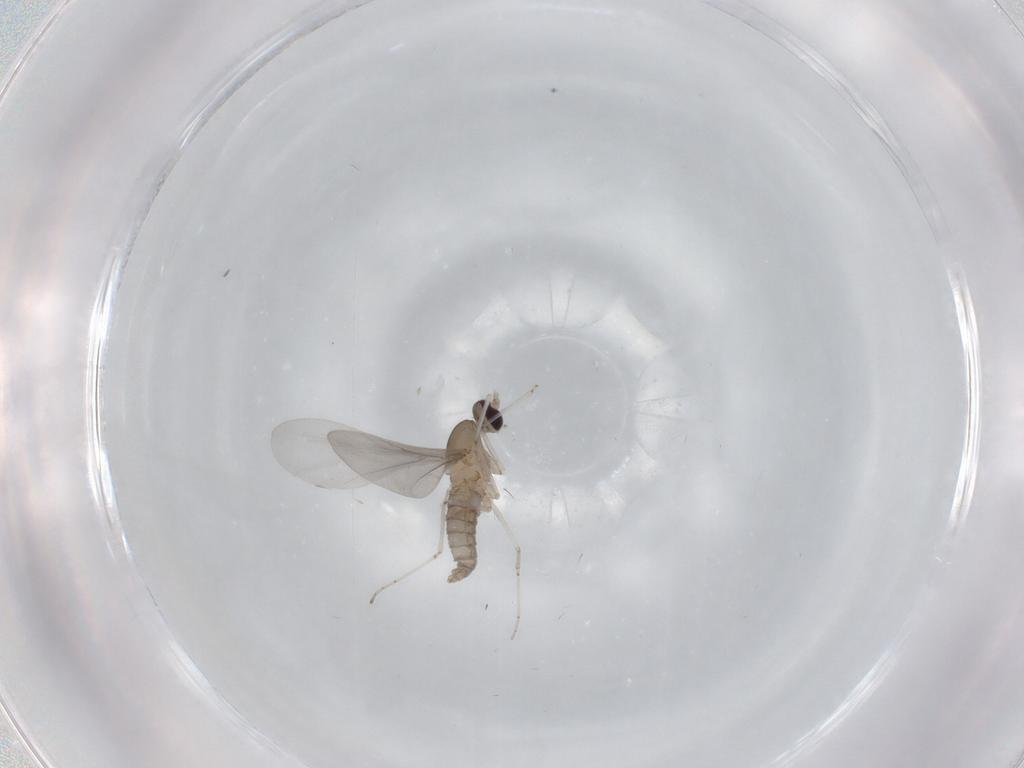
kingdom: Animalia
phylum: Arthropoda
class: Insecta
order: Diptera
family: Cecidomyiidae
